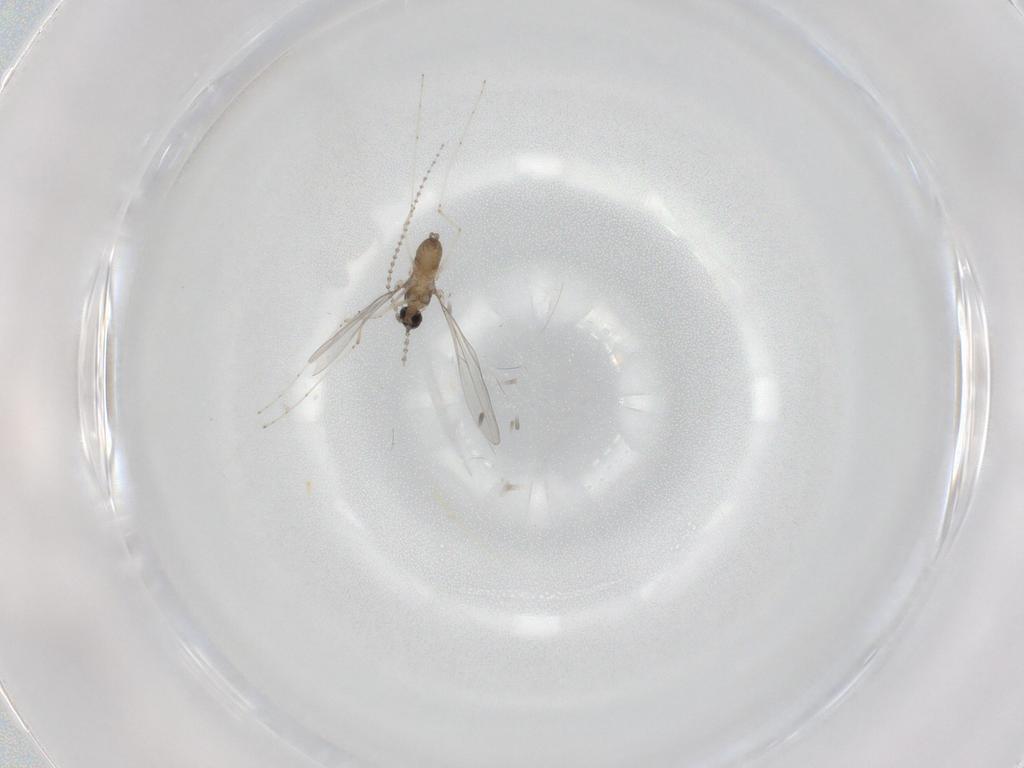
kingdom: Animalia
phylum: Arthropoda
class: Insecta
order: Diptera
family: Cecidomyiidae
